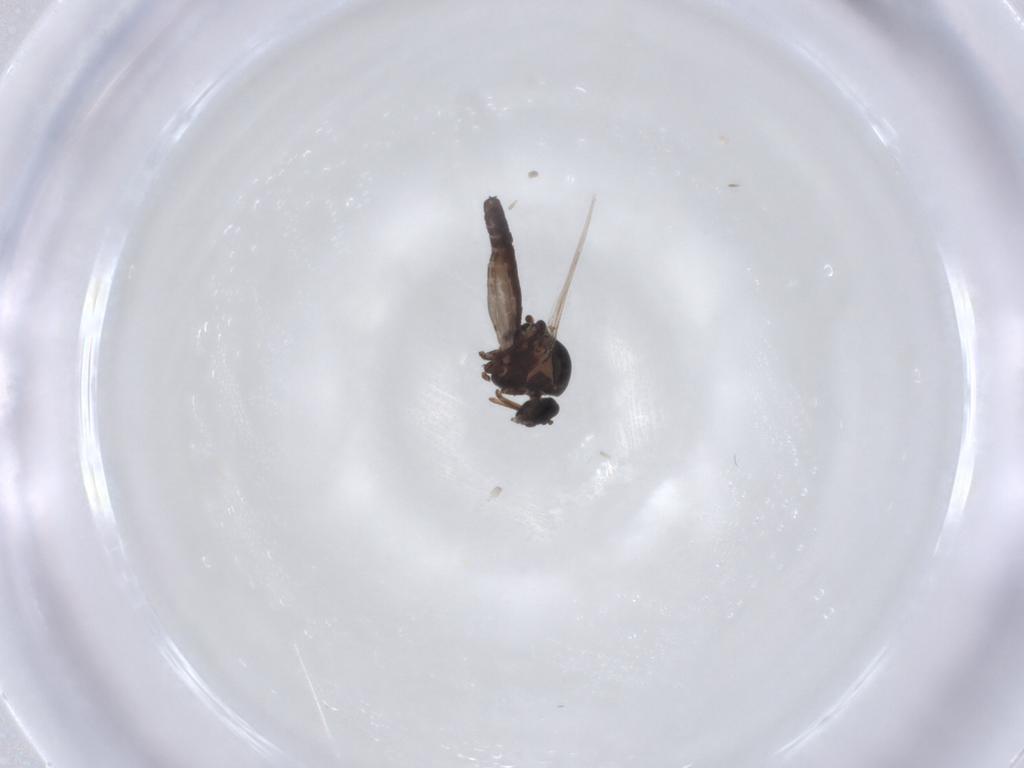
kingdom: Animalia
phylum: Arthropoda
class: Insecta
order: Diptera
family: Ceratopogonidae
